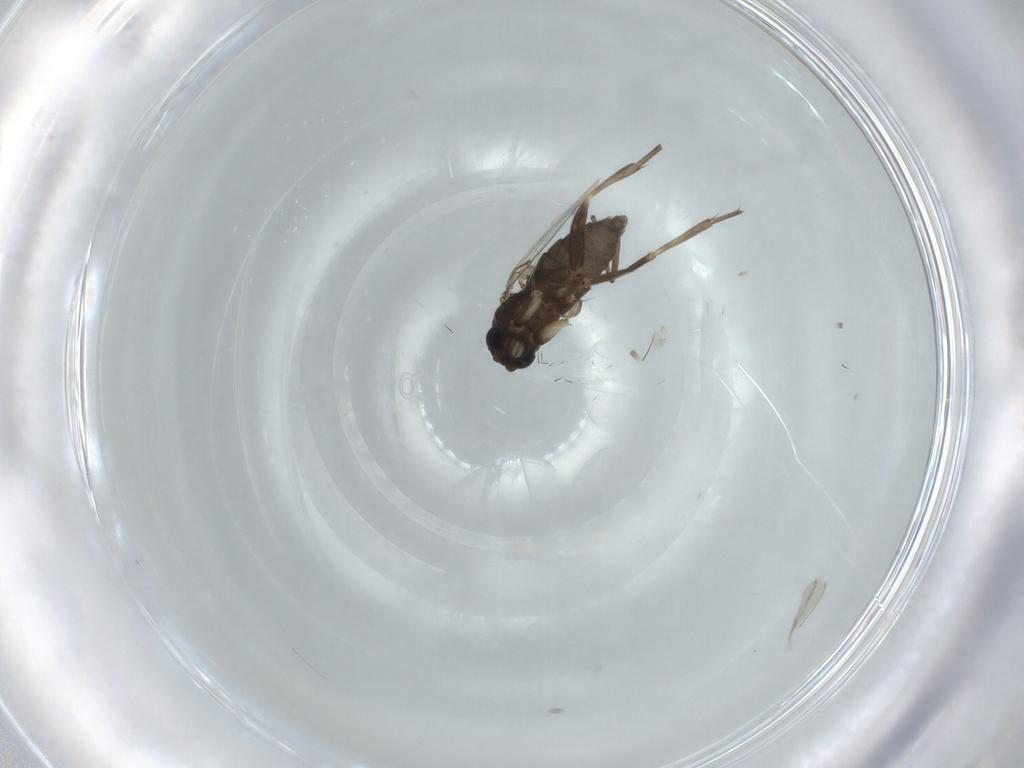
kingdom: Animalia
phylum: Arthropoda
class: Insecta
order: Diptera
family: Phoridae
